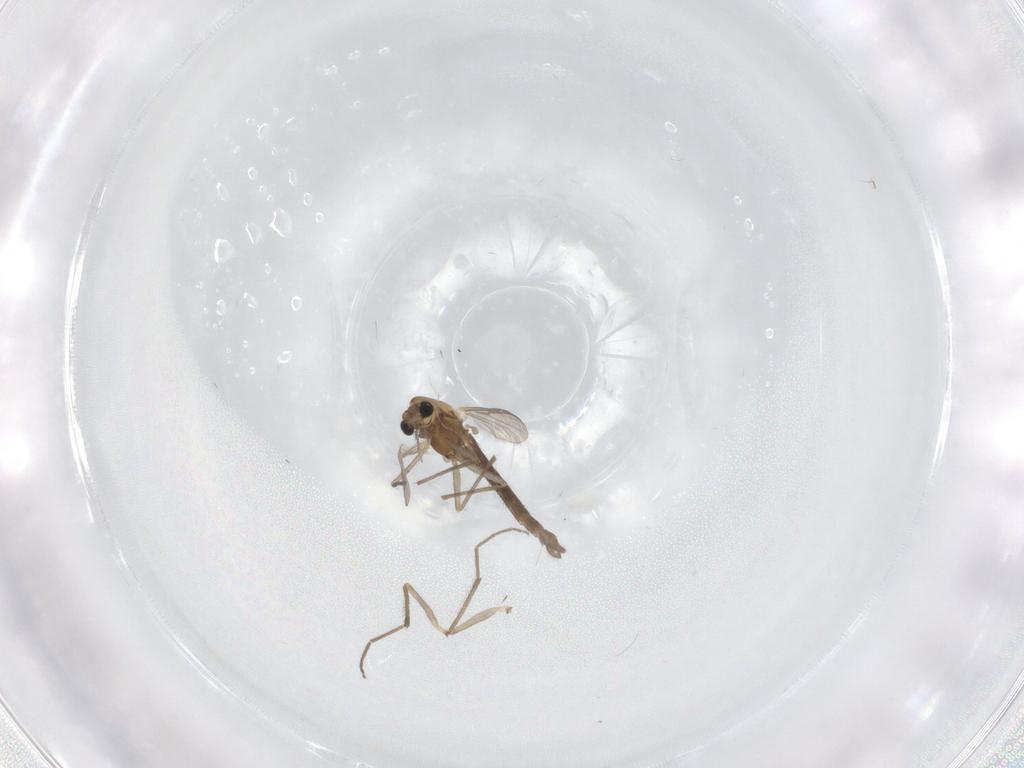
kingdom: Animalia
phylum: Arthropoda
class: Insecta
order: Diptera
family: Chironomidae
